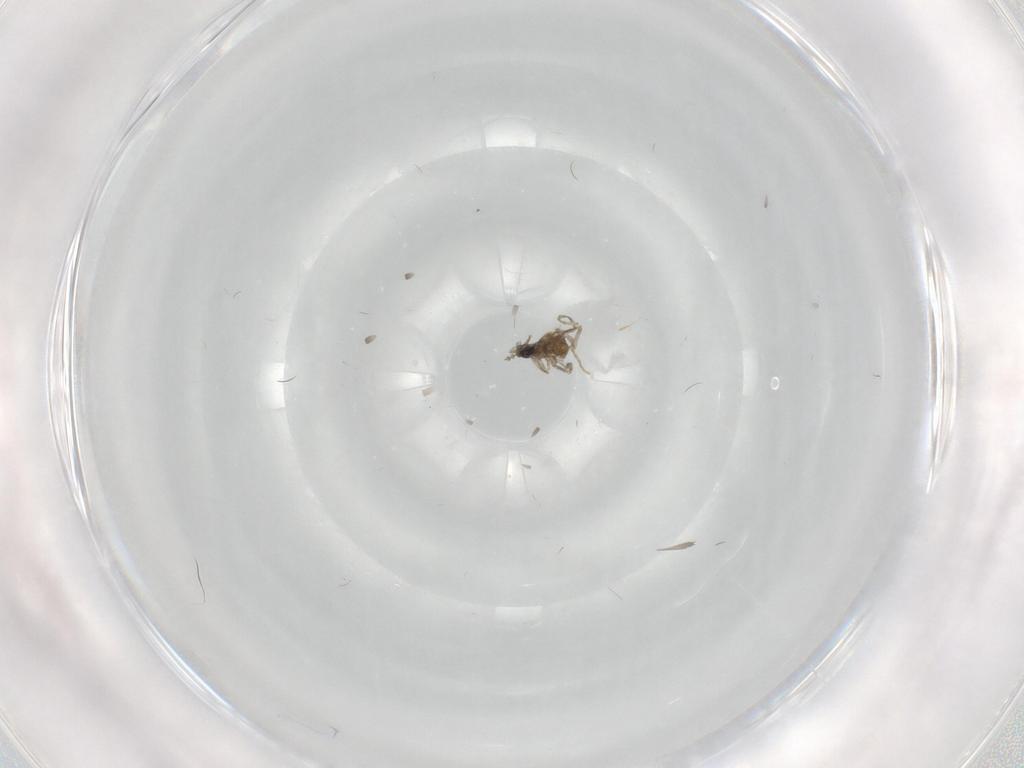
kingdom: Animalia
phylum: Arthropoda
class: Insecta
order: Diptera
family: Cecidomyiidae
